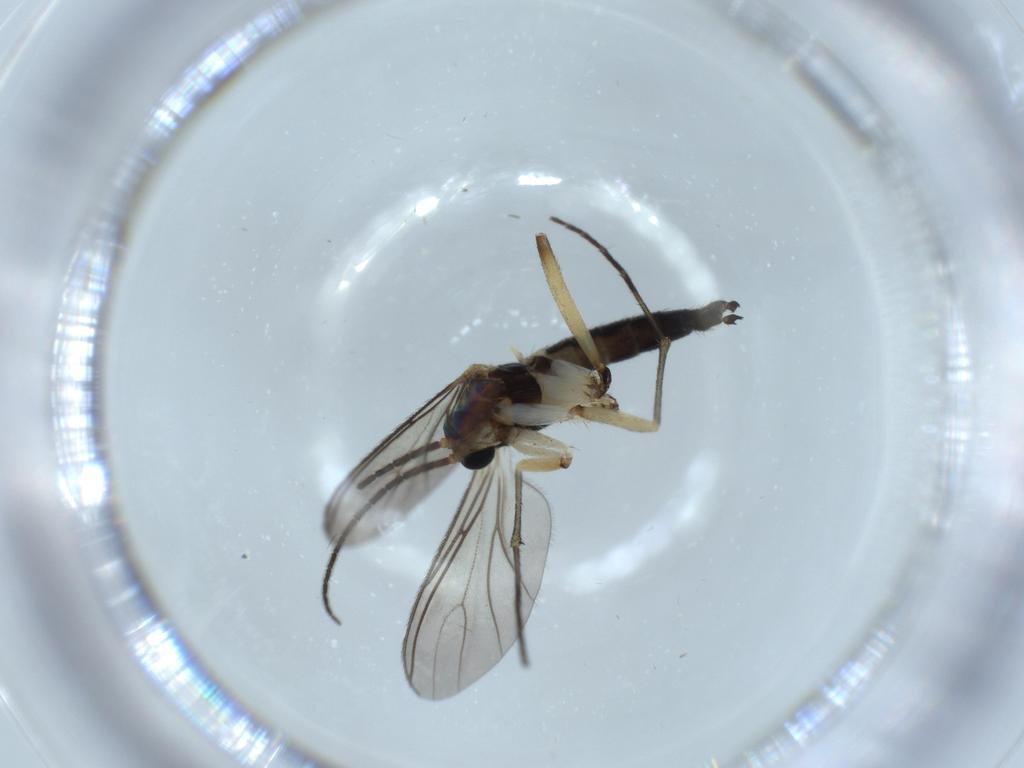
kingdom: Animalia
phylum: Arthropoda
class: Insecta
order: Diptera
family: Sciaridae
